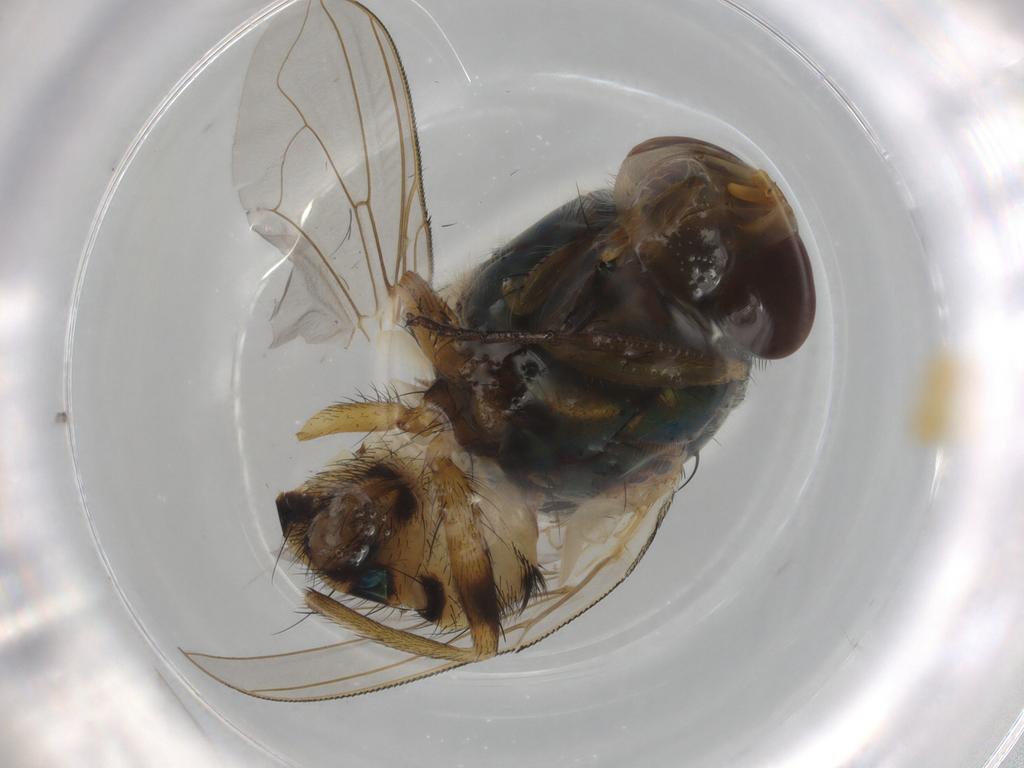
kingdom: Animalia
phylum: Arthropoda
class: Insecta
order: Diptera
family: Calliphoridae
